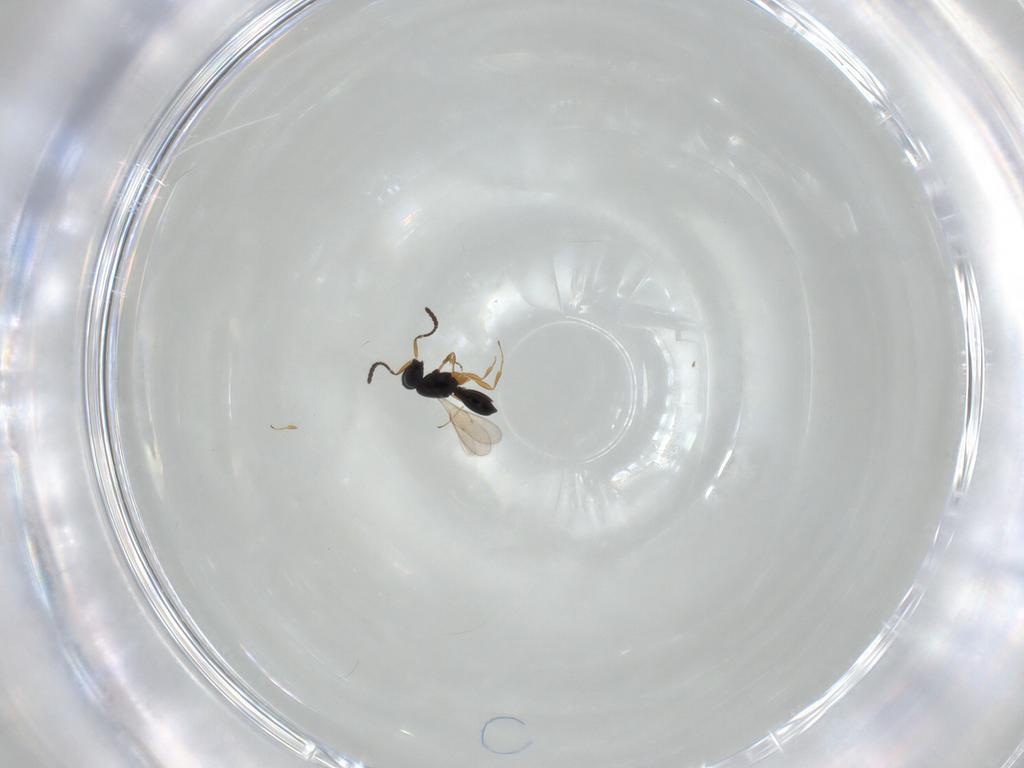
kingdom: Animalia
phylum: Arthropoda
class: Insecta
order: Hymenoptera
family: Scelionidae
